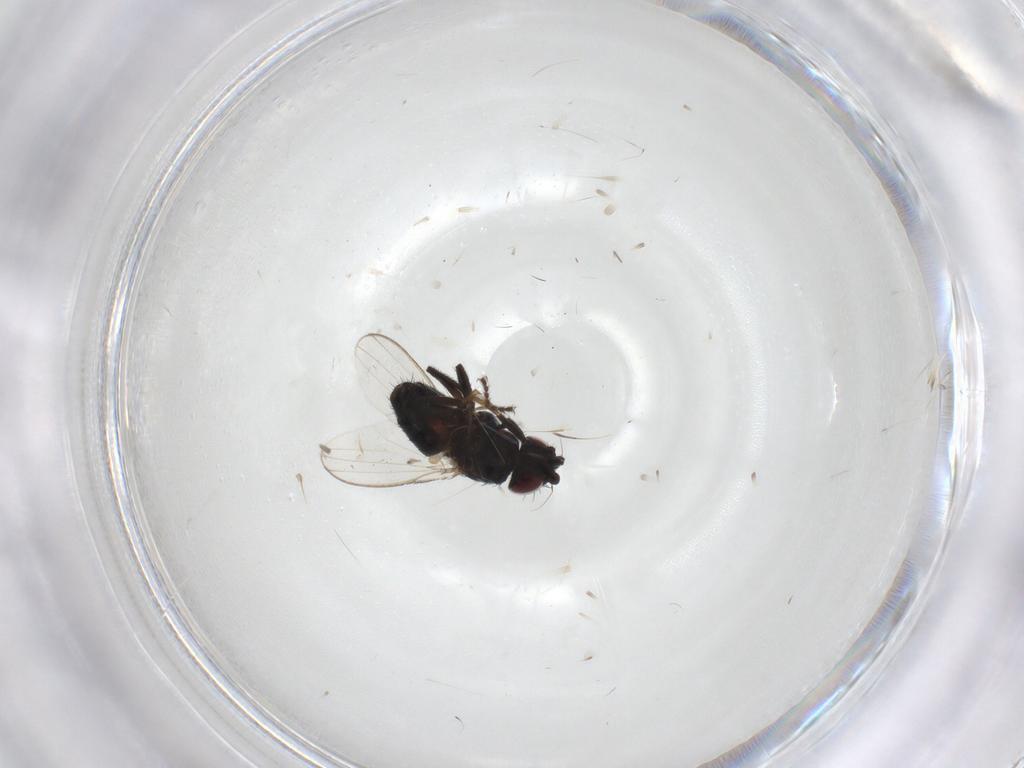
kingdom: Animalia
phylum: Arthropoda
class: Insecta
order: Diptera
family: Milichiidae
